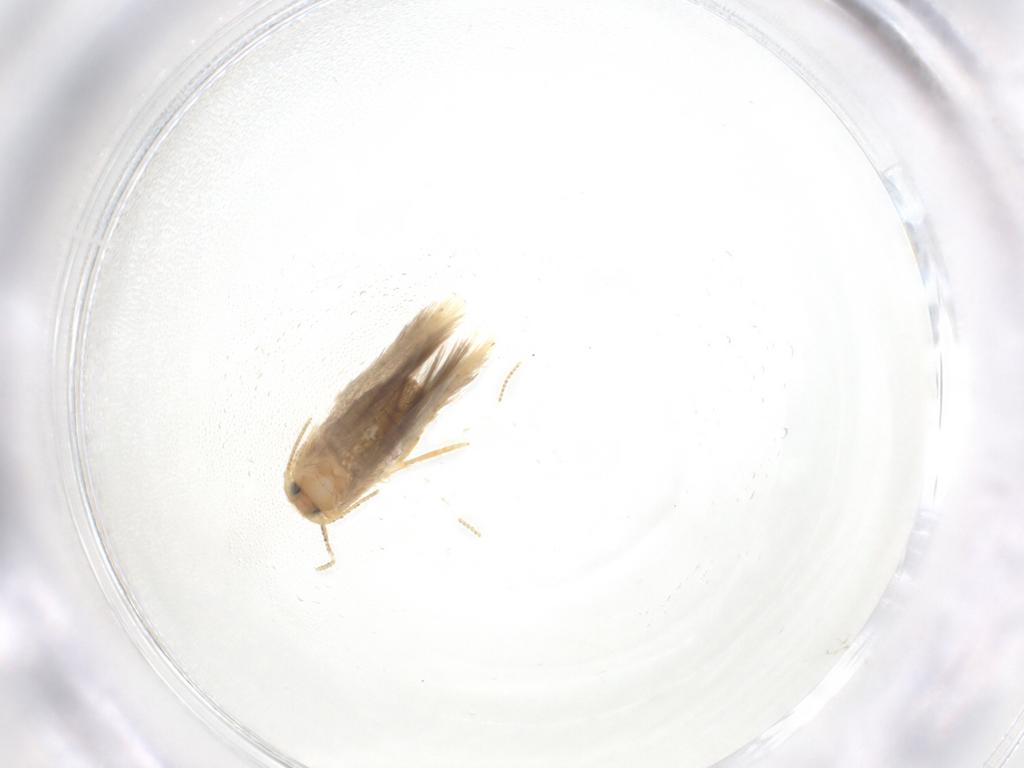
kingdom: Animalia
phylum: Arthropoda
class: Insecta
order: Lepidoptera
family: Nepticulidae
